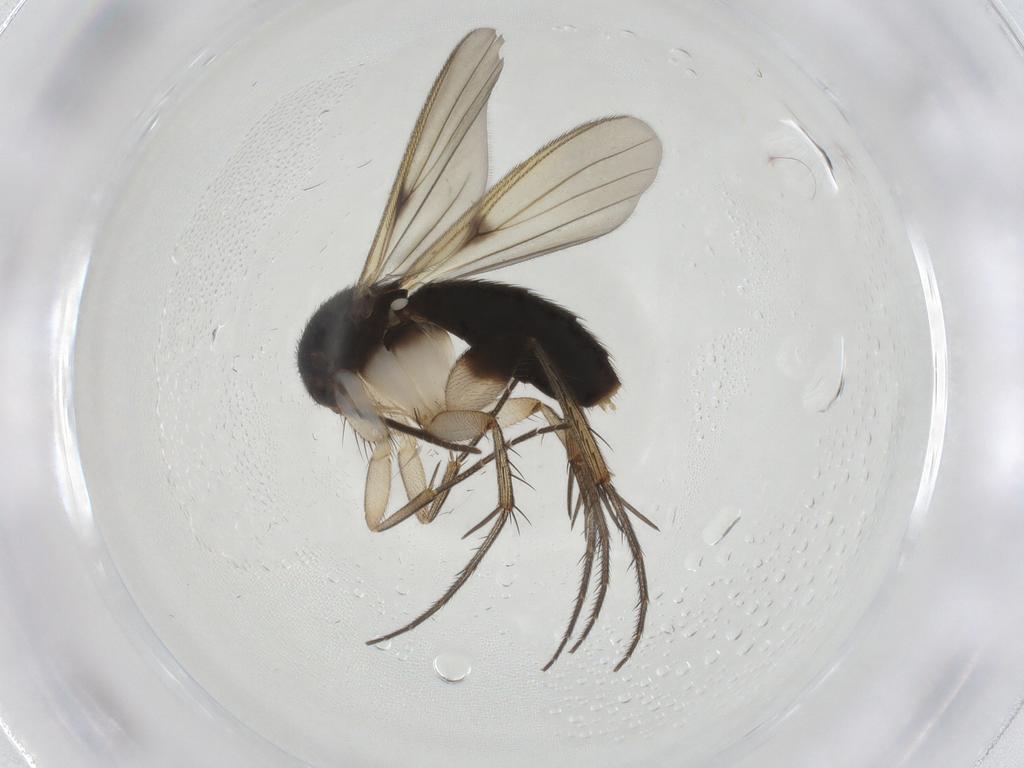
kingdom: Animalia
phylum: Arthropoda
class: Insecta
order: Diptera
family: Mycetophilidae
